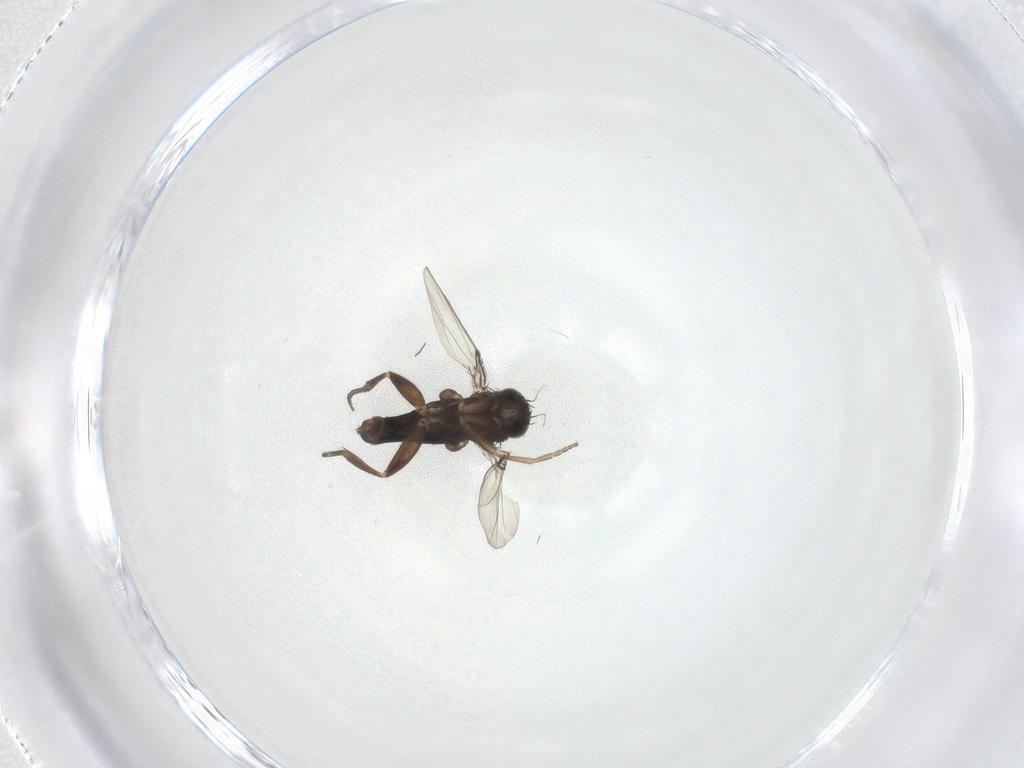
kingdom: Animalia
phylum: Arthropoda
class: Insecta
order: Diptera
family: Phoridae
